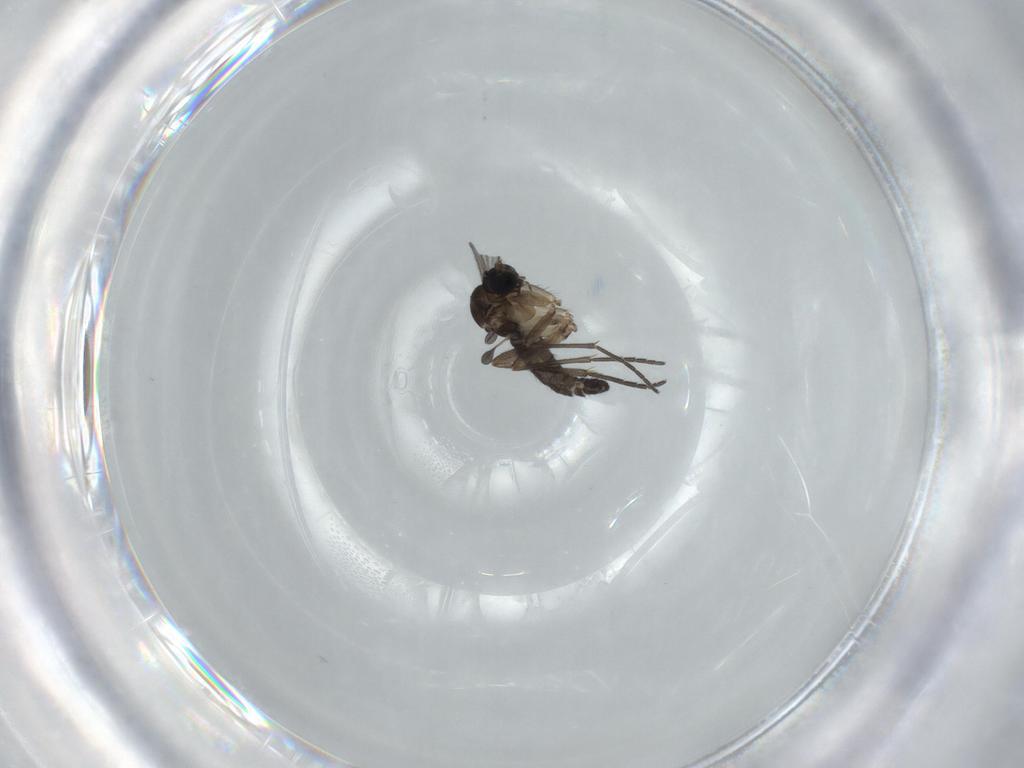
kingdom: Animalia
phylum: Arthropoda
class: Insecta
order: Diptera
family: Sciaridae
